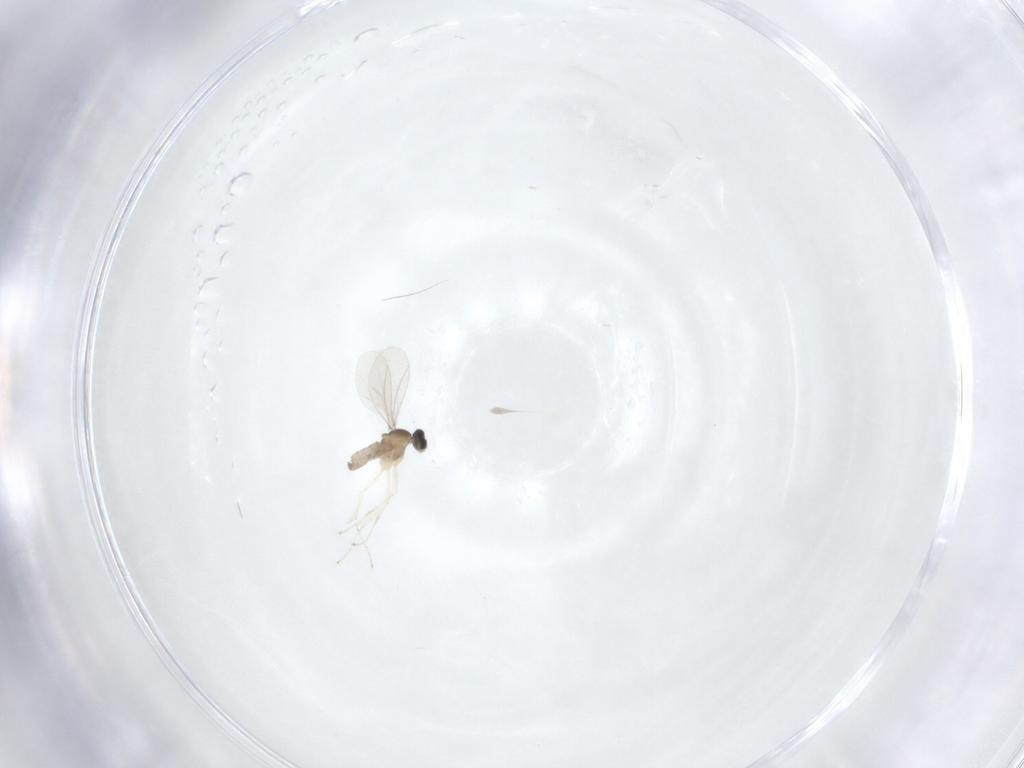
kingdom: Animalia
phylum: Arthropoda
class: Insecta
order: Diptera
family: Cecidomyiidae
